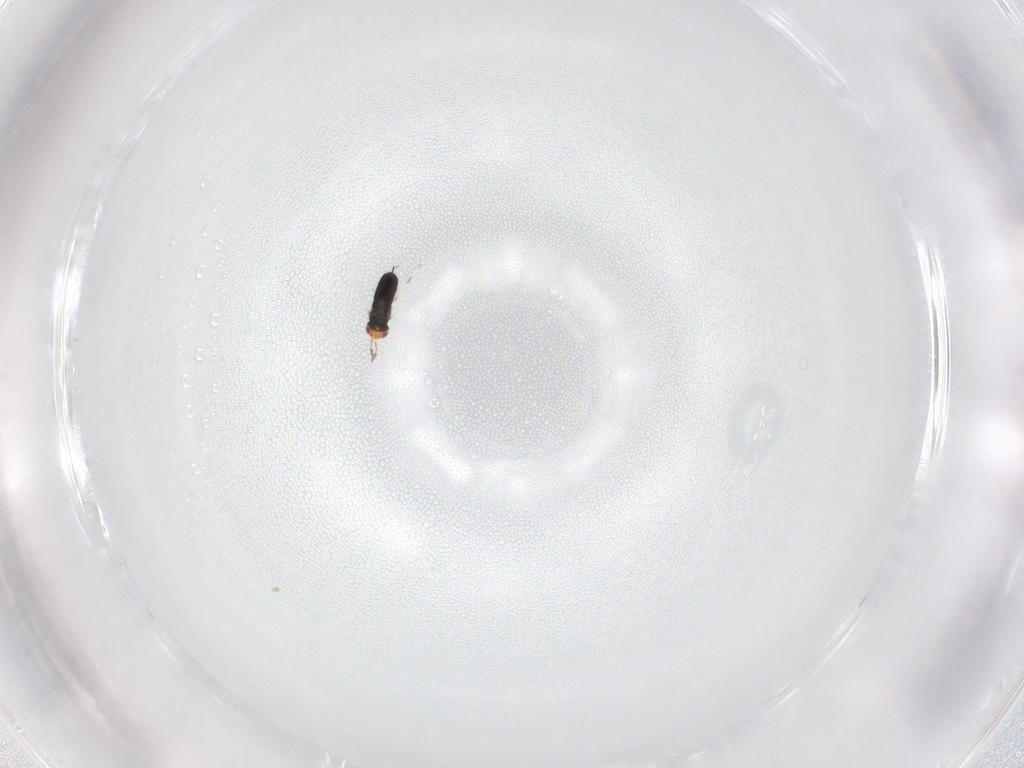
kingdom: Animalia
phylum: Arthropoda
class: Insecta
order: Hymenoptera
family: Azotidae
